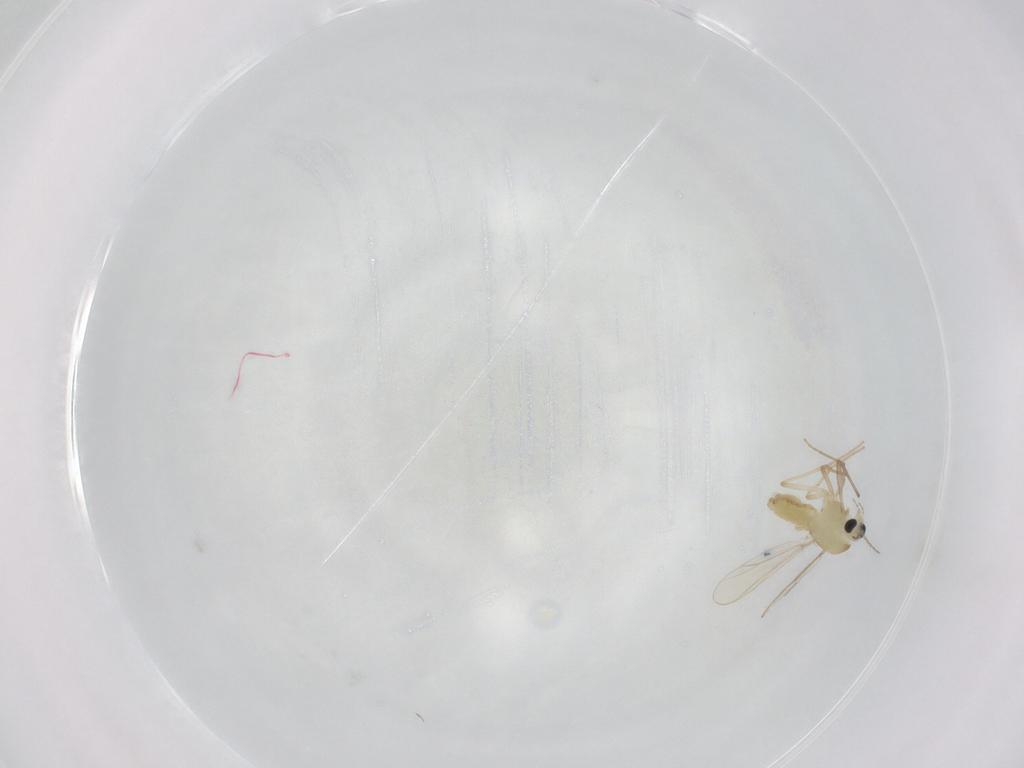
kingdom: Animalia
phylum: Arthropoda
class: Insecta
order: Diptera
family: Chironomidae
